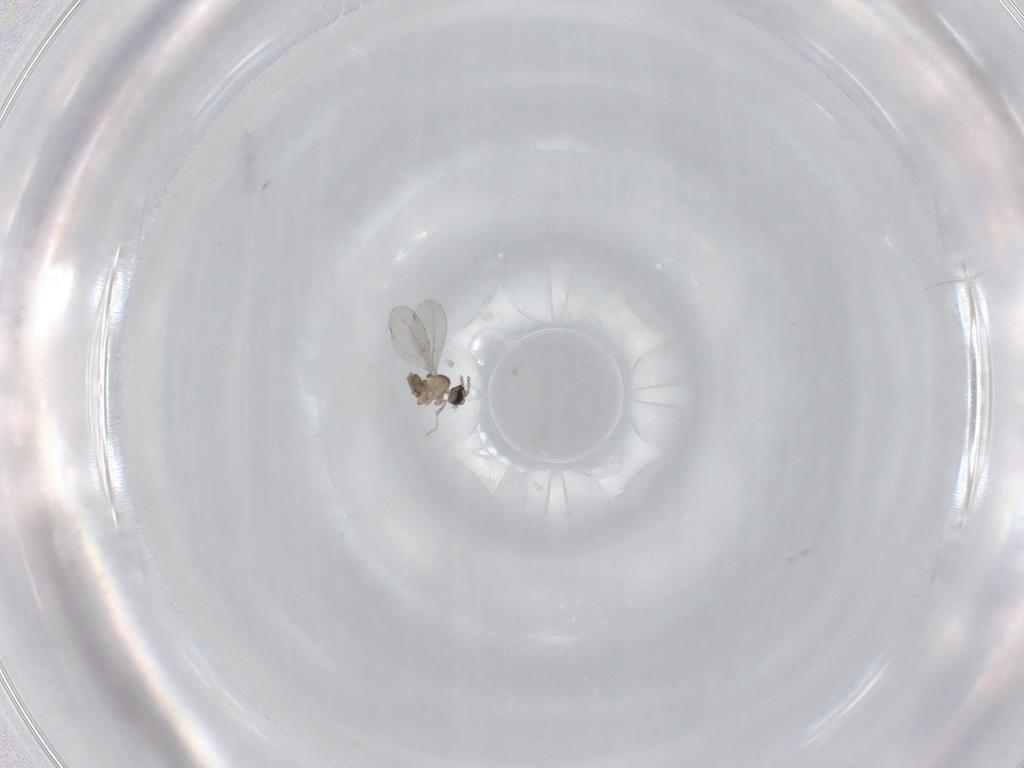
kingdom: Animalia
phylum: Arthropoda
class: Insecta
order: Diptera
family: Cecidomyiidae
